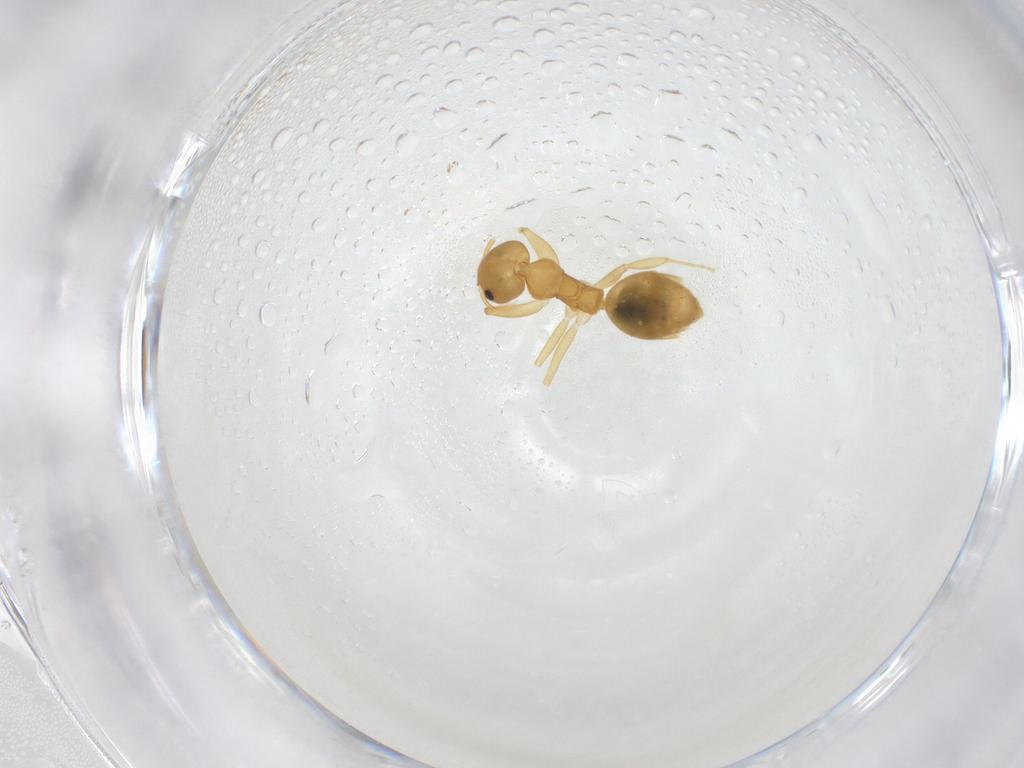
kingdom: Animalia
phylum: Arthropoda
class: Insecta
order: Hymenoptera
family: Formicidae
